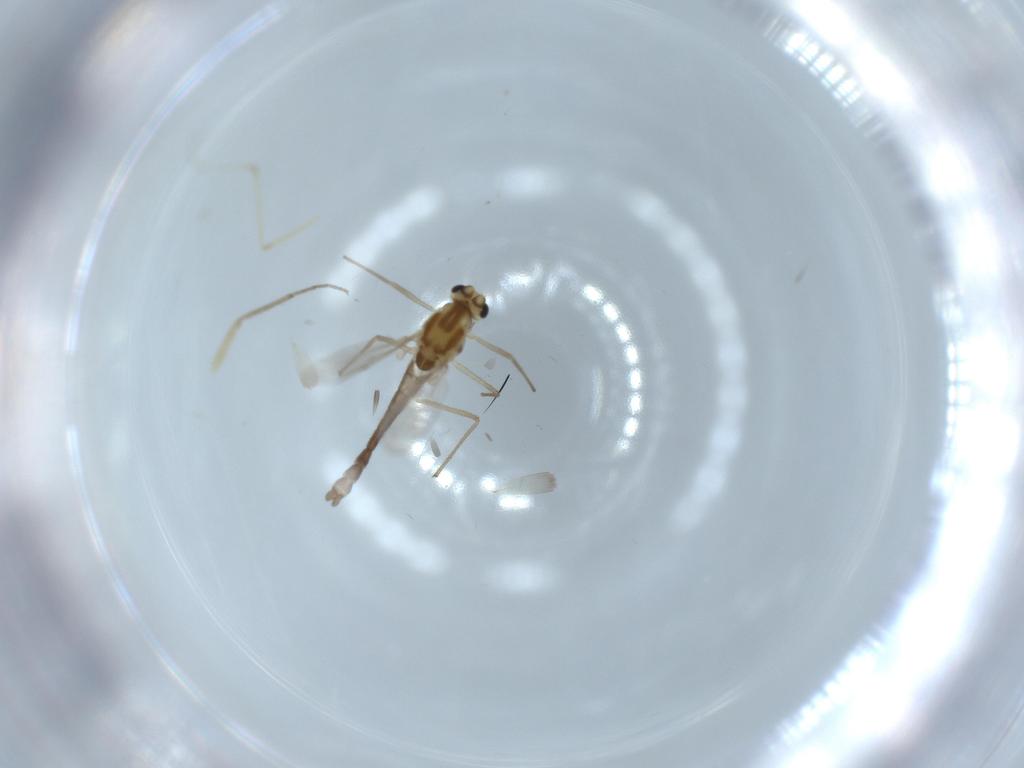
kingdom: Animalia
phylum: Arthropoda
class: Insecta
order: Diptera
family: Chironomidae
